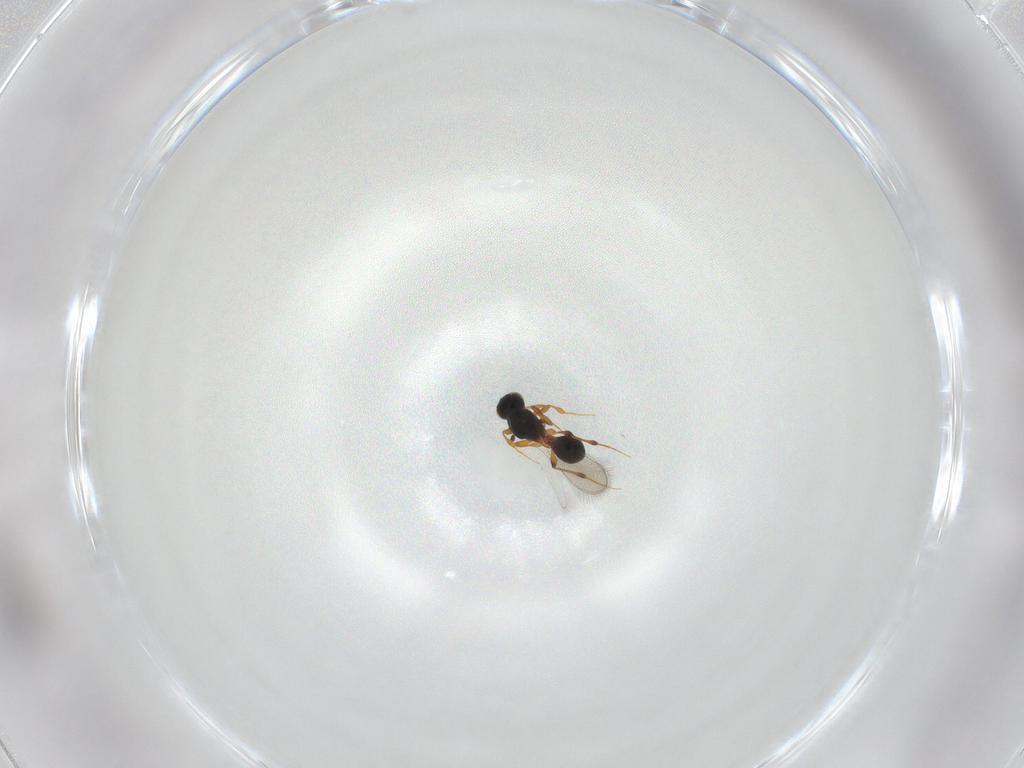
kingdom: Animalia
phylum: Arthropoda
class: Insecta
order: Hymenoptera
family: Platygastridae
